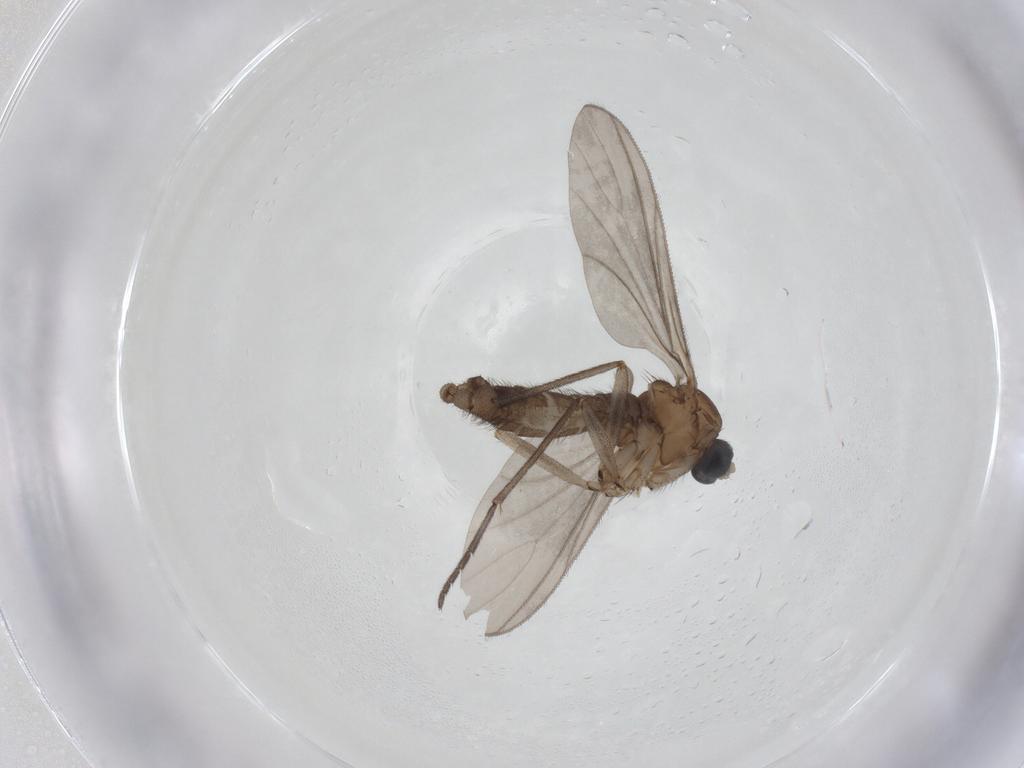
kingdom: Animalia
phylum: Arthropoda
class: Insecta
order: Diptera
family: Sciaridae
